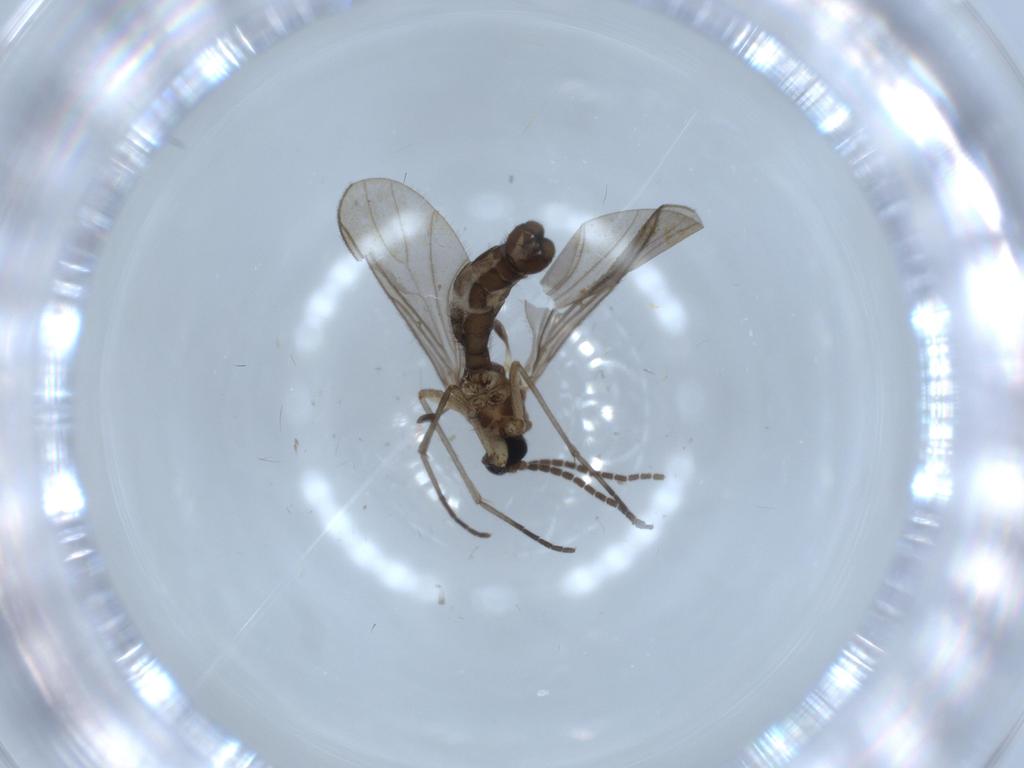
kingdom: Animalia
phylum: Arthropoda
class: Insecta
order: Diptera
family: Sciaridae
